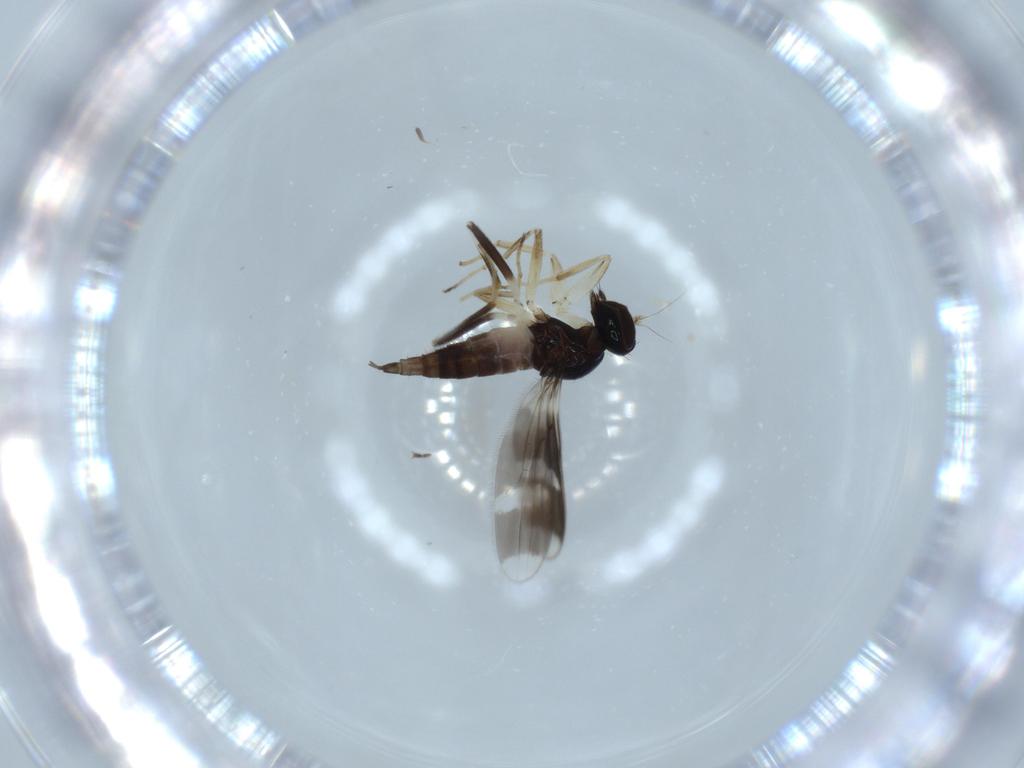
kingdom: Animalia
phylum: Arthropoda
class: Insecta
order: Diptera
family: Hybotidae
